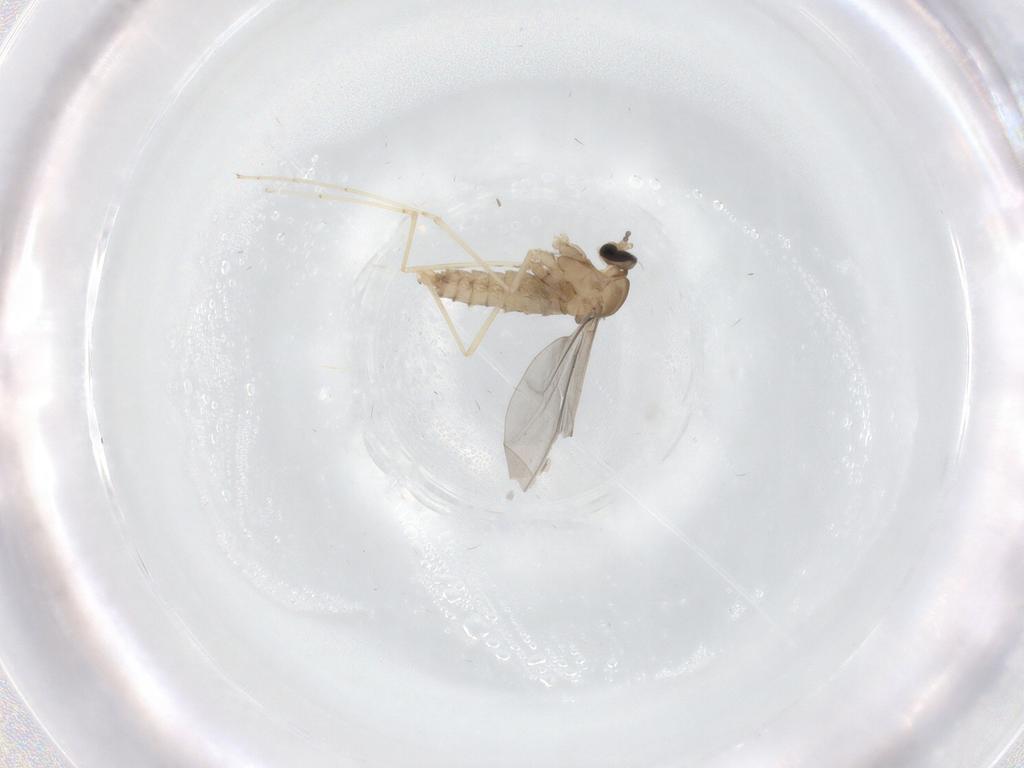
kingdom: Animalia
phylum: Arthropoda
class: Insecta
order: Diptera
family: Cecidomyiidae
